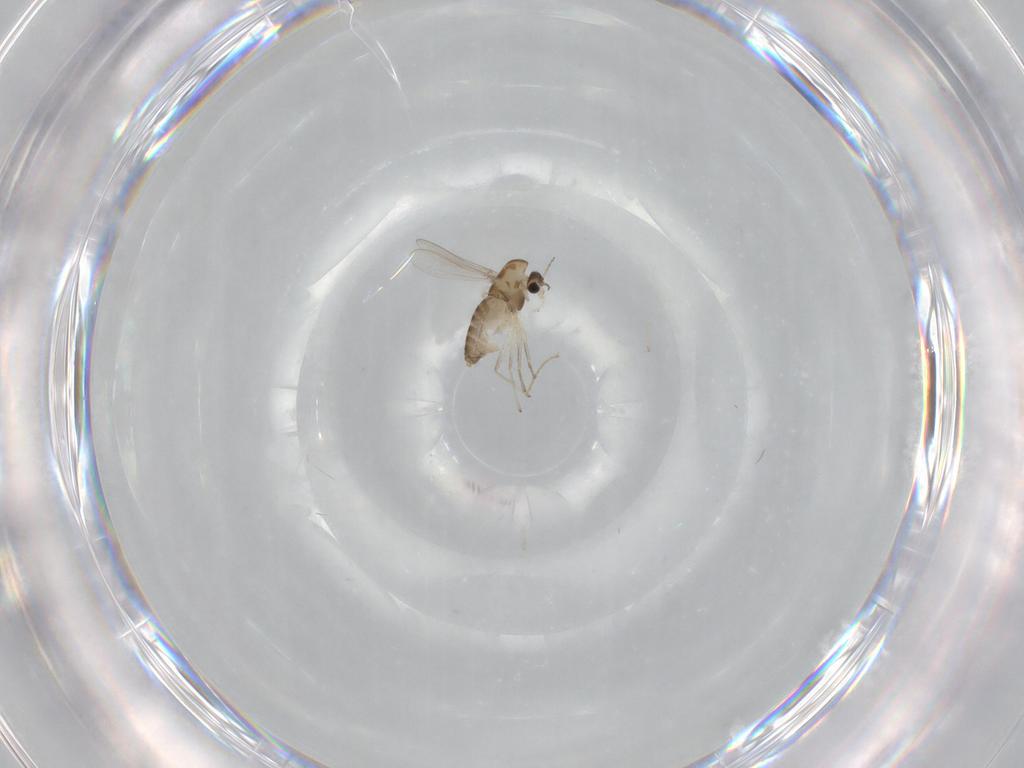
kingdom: Animalia
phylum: Arthropoda
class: Insecta
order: Diptera
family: Chironomidae
